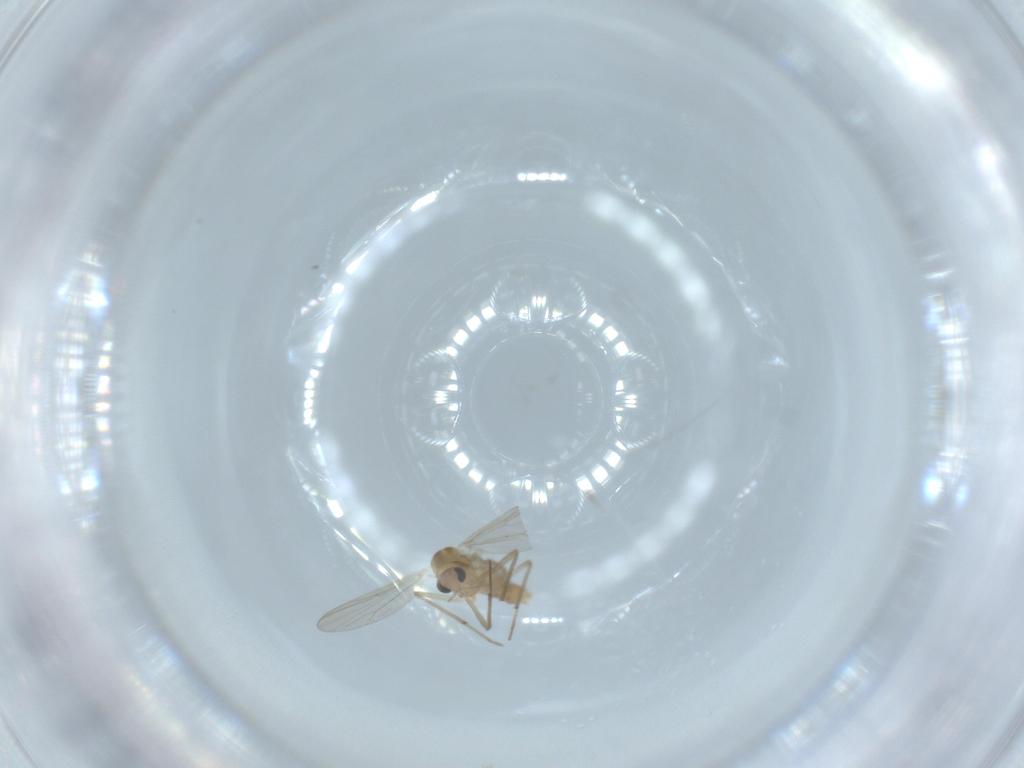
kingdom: Animalia
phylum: Arthropoda
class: Insecta
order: Diptera
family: Chironomidae
